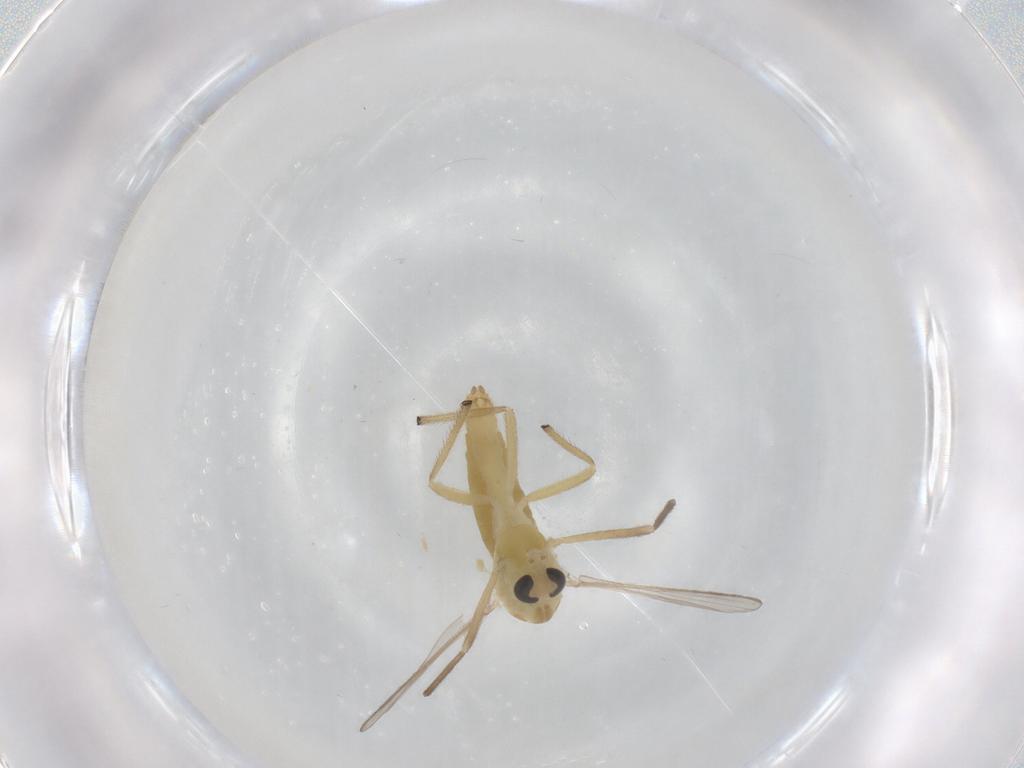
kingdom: Animalia
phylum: Arthropoda
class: Insecta
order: Diptera
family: Chironomidae
